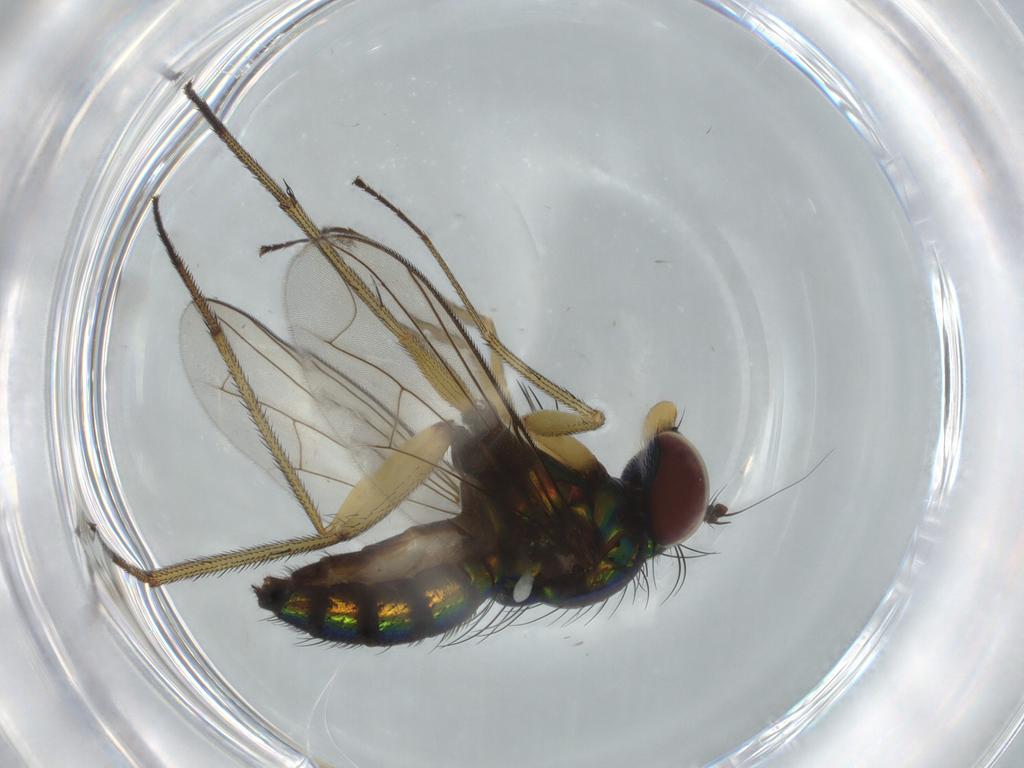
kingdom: Animalia
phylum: Arthropoda
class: Insecta
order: Diptera
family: Dolichopodidae
